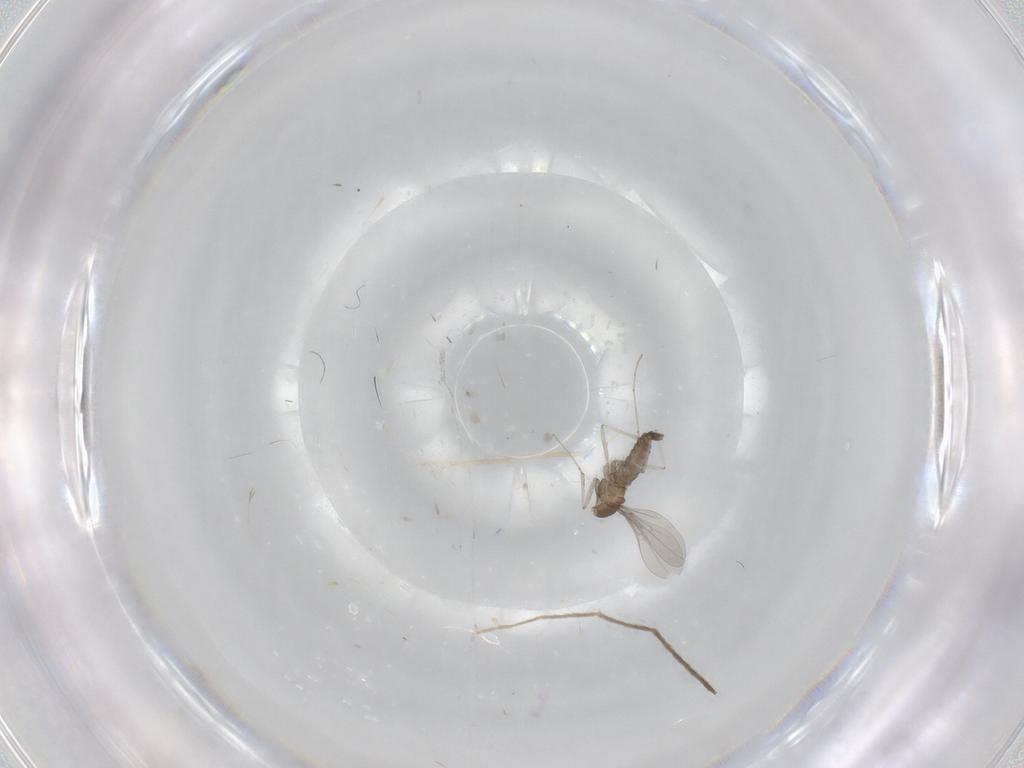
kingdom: Animalia
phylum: Arthropoda
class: Insecta
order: Diptera
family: Cecidomyiidae
